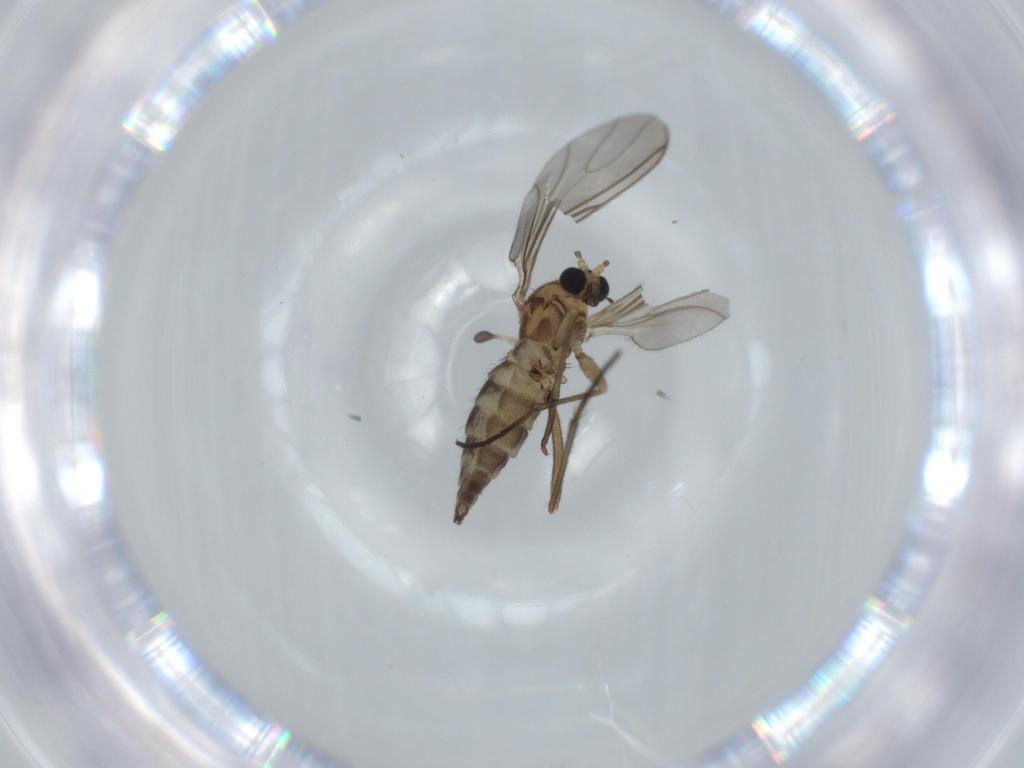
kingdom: Animalia
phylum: Arthropoda
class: Insecta
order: Diptera
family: Sciaridae
